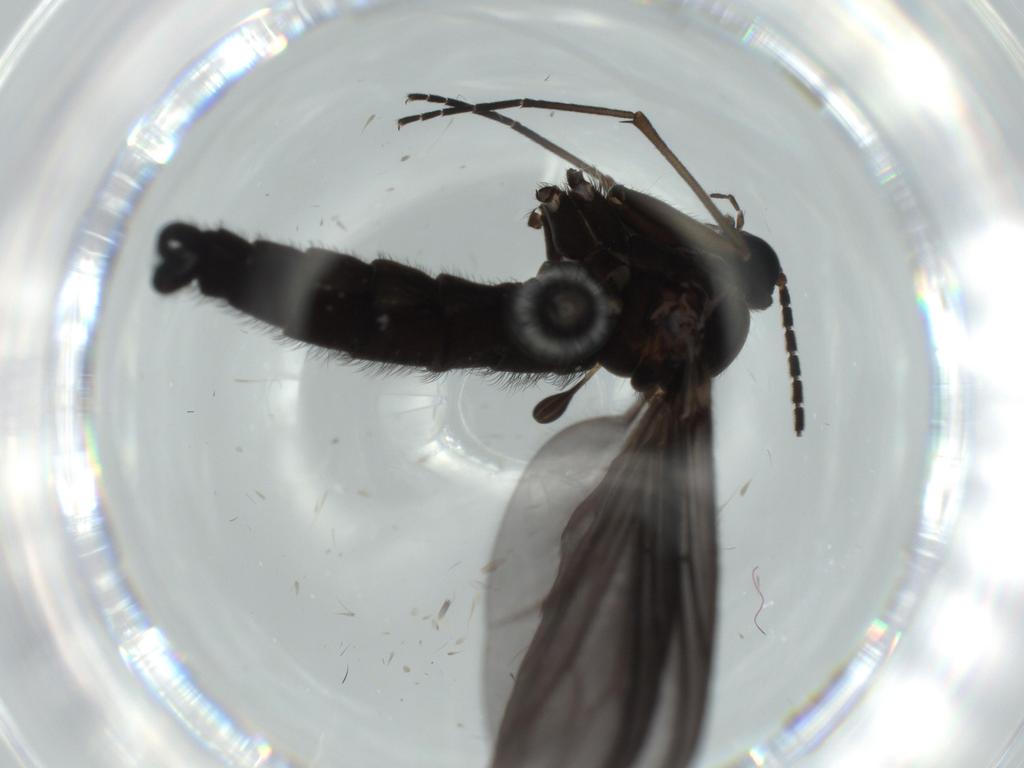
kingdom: Animalia
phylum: Arthropoda
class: Insecta
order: Diptera
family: Ceratopogonidae
